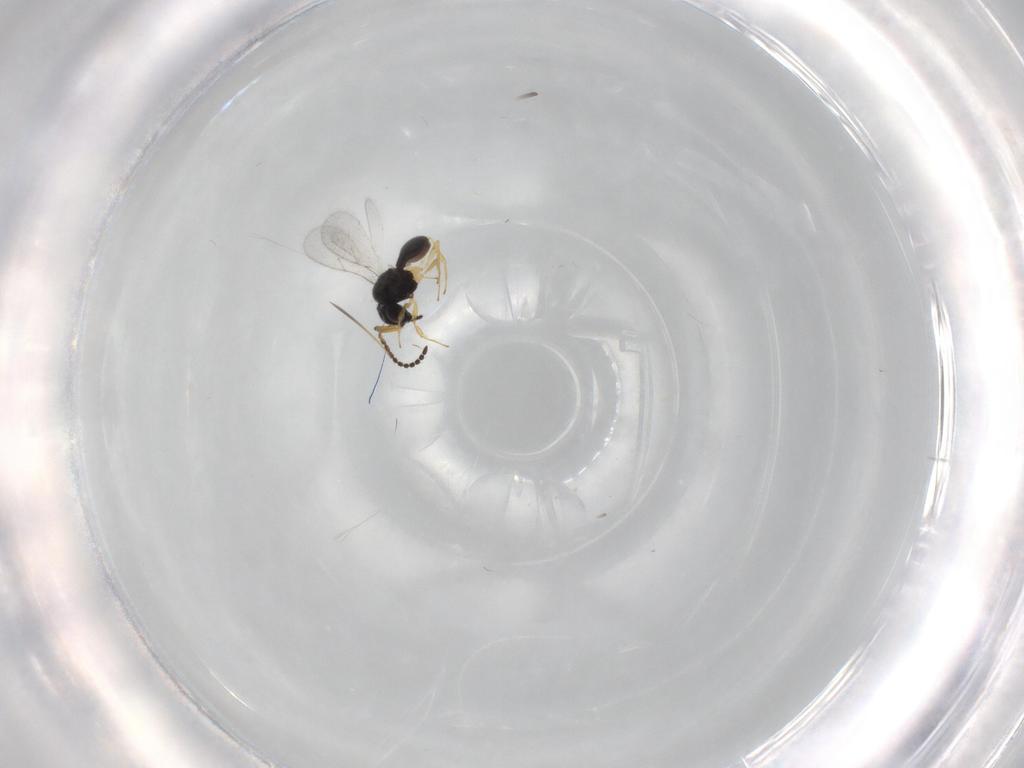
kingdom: Animalia
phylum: Arthropoda
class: Insecta
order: Hymenoptera
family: Scelionidae
